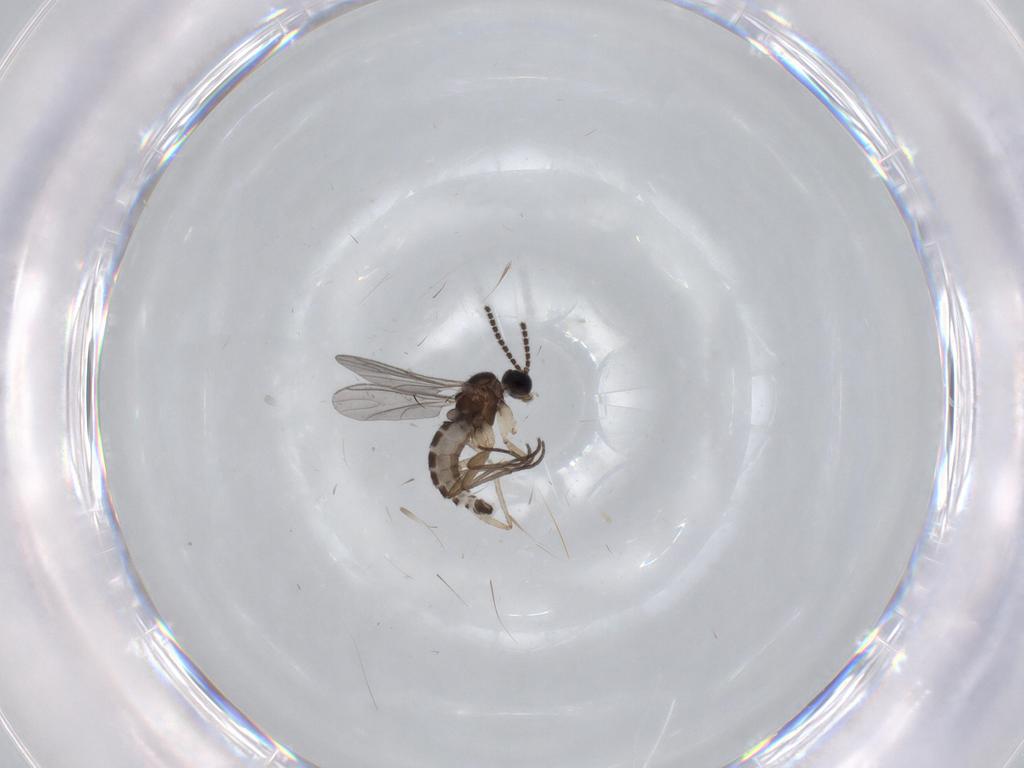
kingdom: Animalia
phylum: Arthropoda
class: Insecta
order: Diptera
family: Sciaridae
